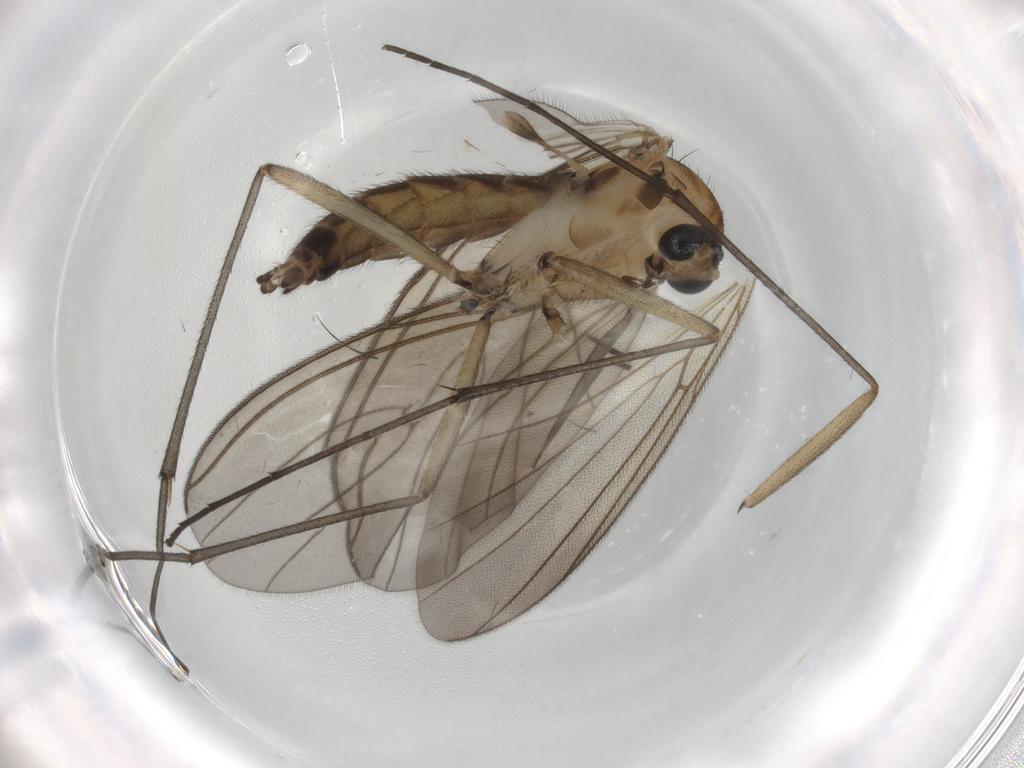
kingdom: Animalia
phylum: Arthropoda
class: Insecta
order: Diptera
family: Sciaridae
